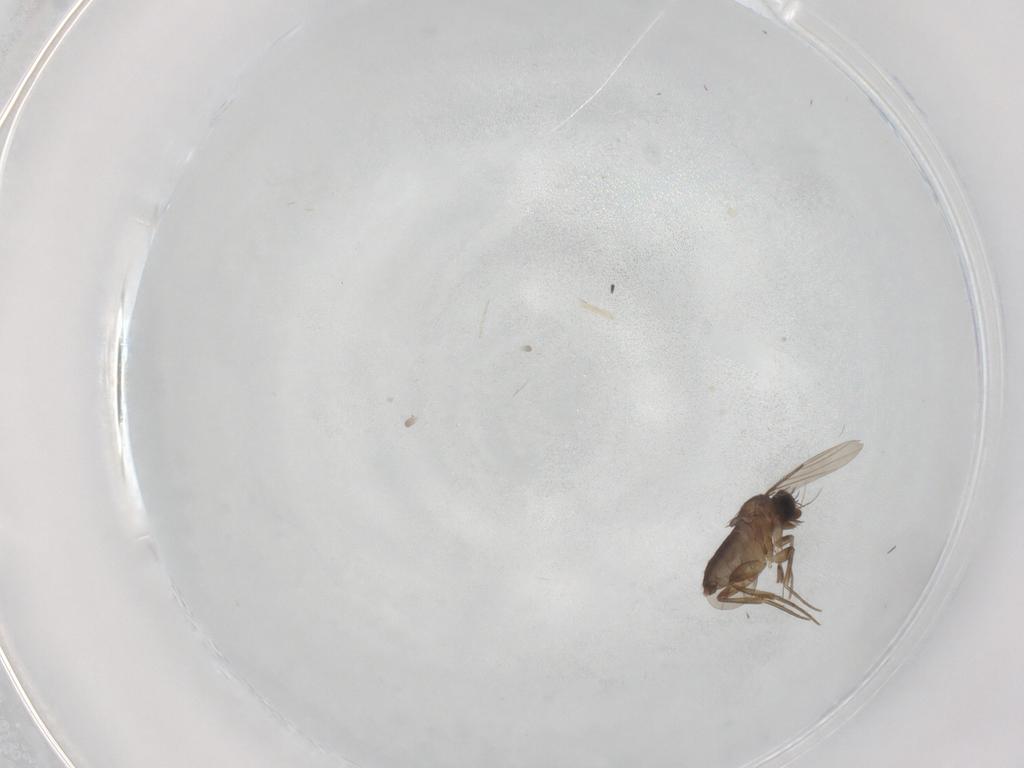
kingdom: Animalia
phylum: Arthropoda
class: Insecta
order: Diptera
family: Phoridae
